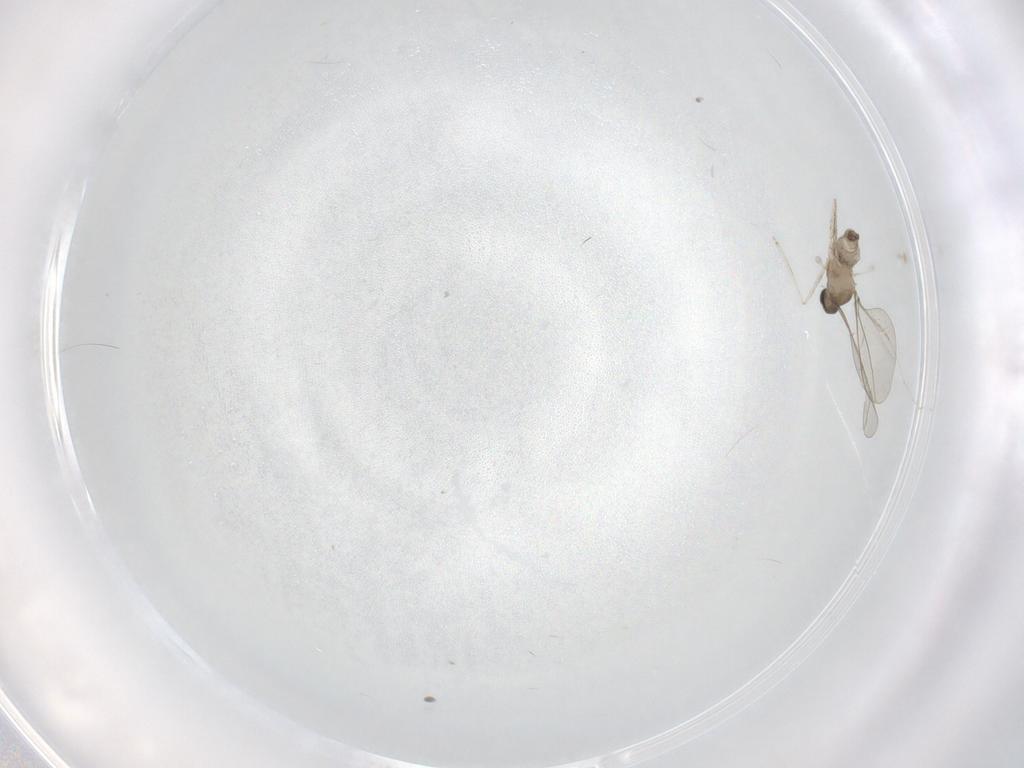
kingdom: Animalia
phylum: Arthropoda
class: Insecta
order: Diptera
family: Cecidomyiidae
